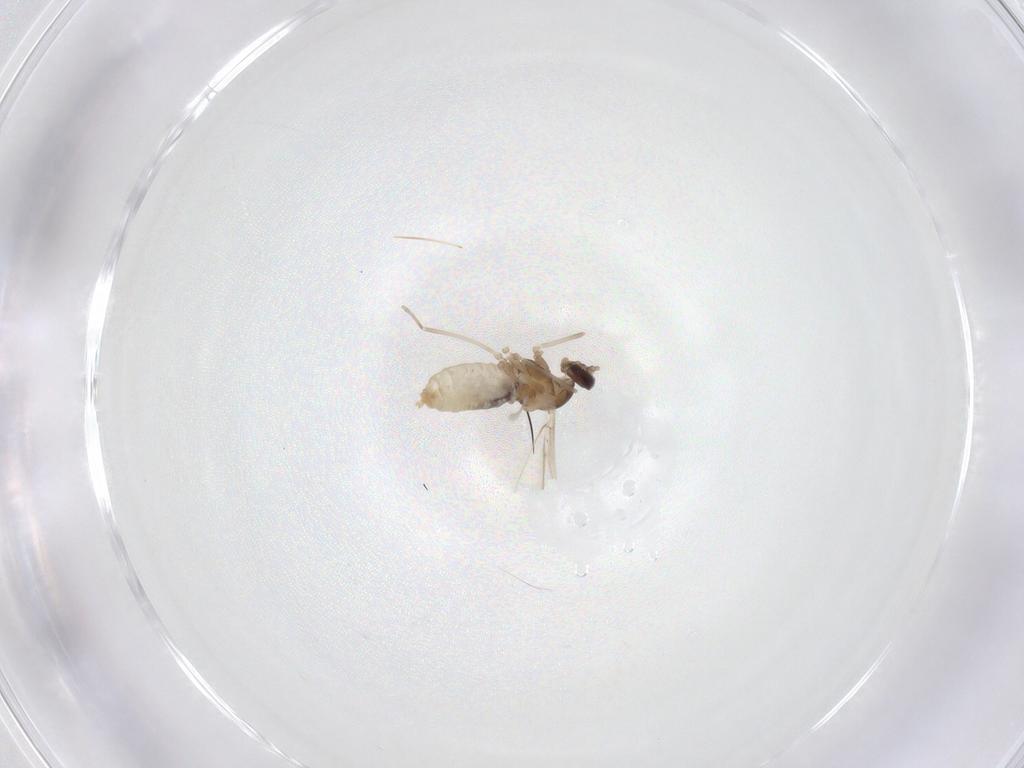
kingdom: Animalia
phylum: Arthropoda
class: Insecta
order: Diptera
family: Cecidomyiidae
